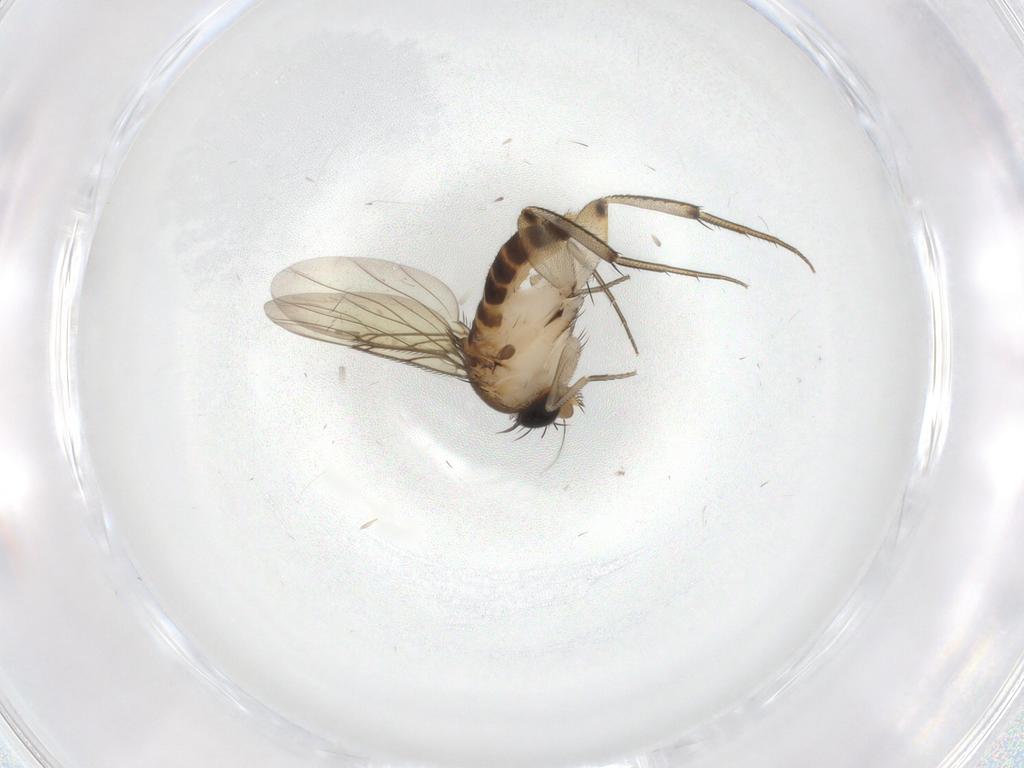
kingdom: Animalia
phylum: Arthropoda
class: Insecta
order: Diptera
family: Phoridae
